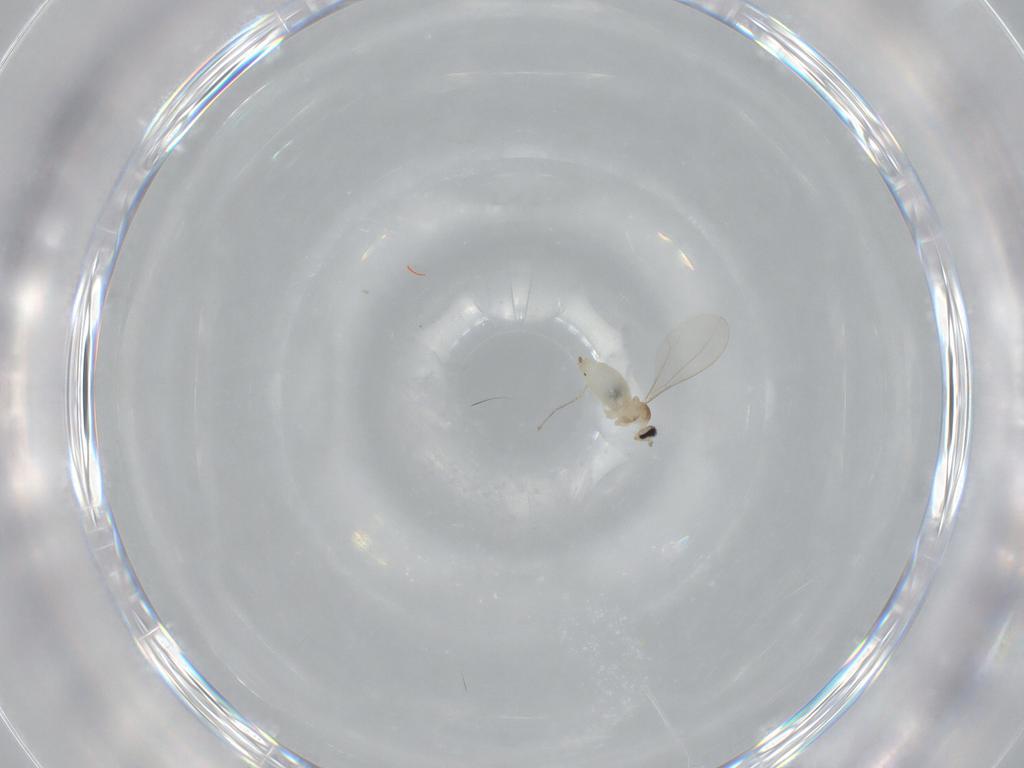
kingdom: Animalia
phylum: Arthropoda
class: Insecta
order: Diptera
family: Cecidomyiidae
